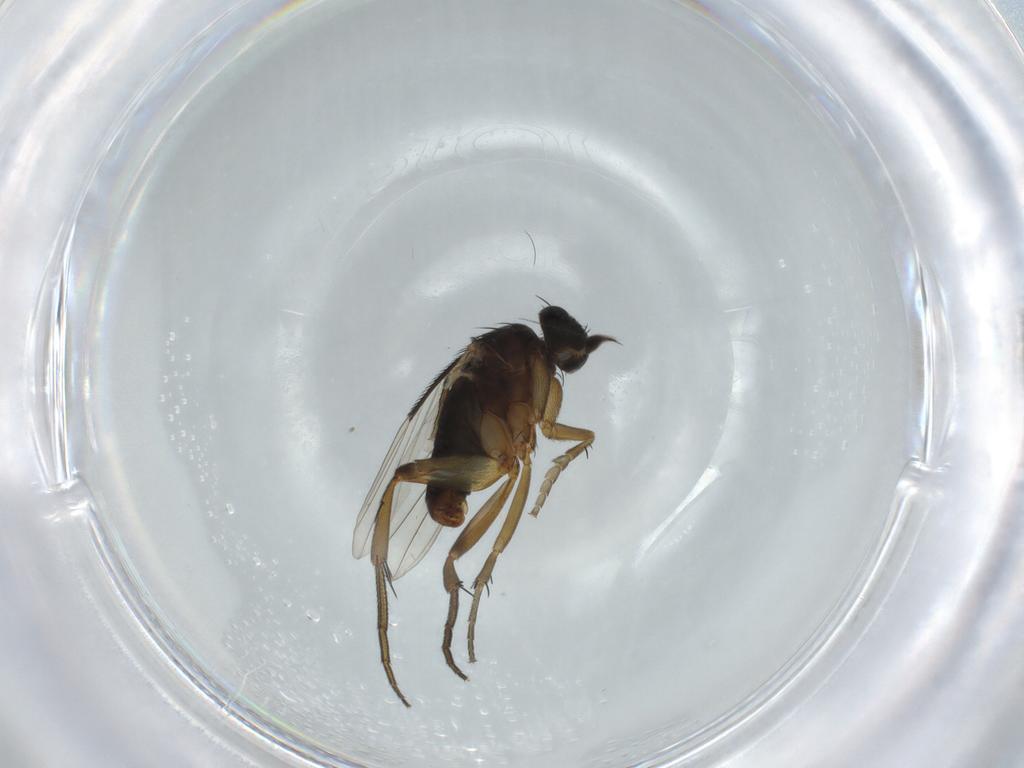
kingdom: Animalia
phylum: Arthropoda
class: Insecta
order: Diptera
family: Phoridae
